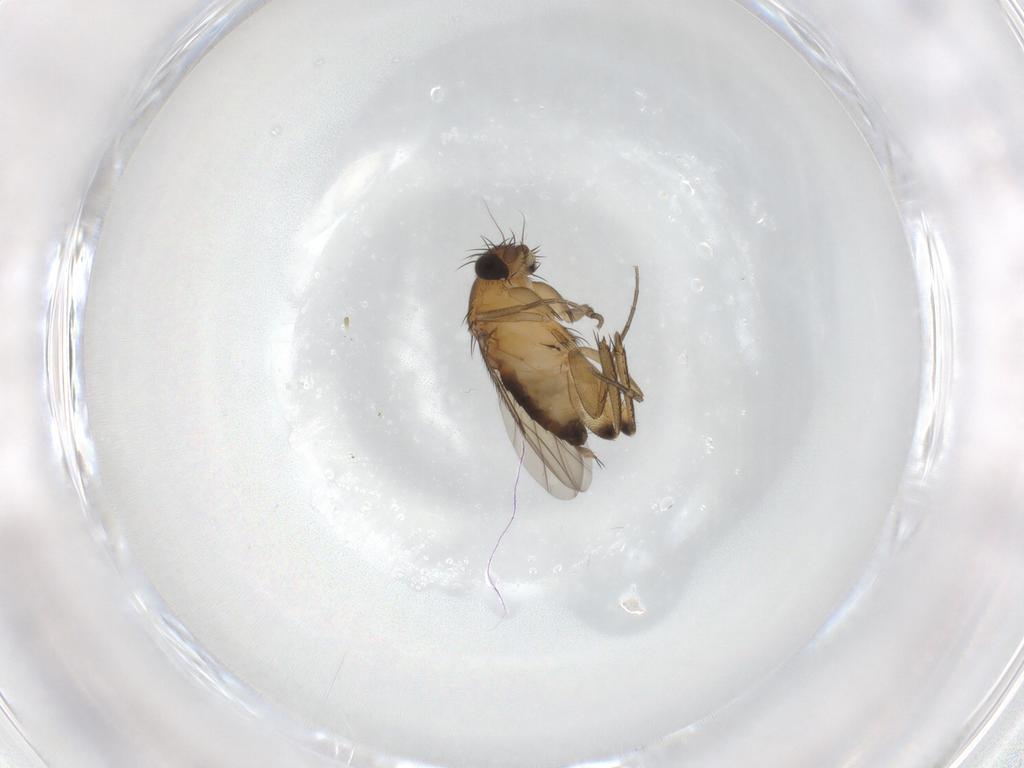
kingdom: Animalia
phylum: Arthropoda
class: Insecta
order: Diptera
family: Phoridae
